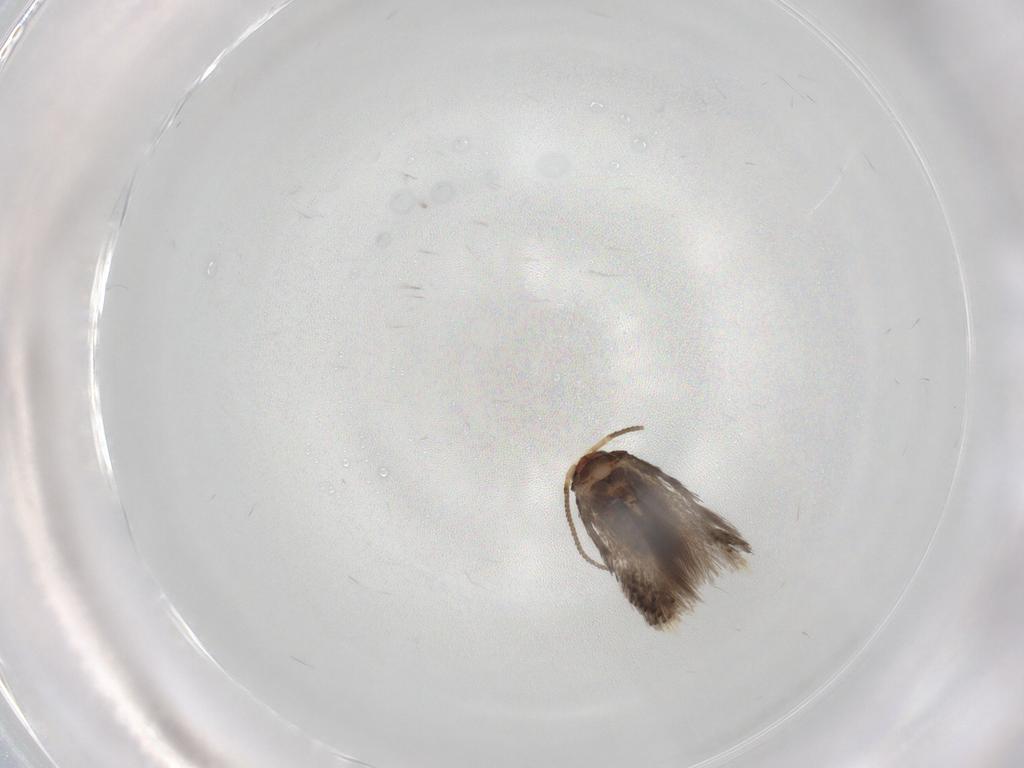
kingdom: Animalia
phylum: Arthropoda
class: Insecta
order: Lepidoptera
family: Nepticulidae
